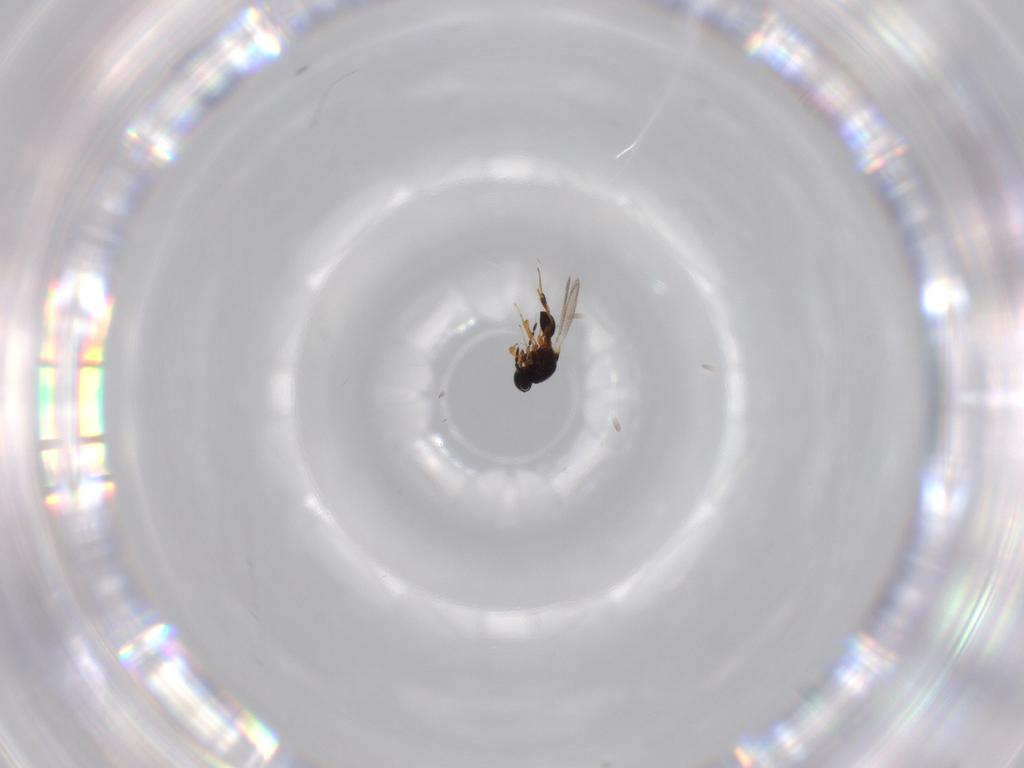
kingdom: Animalia
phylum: Arthropoda
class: Insecta
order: Hymenoptera
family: Platygastridae
